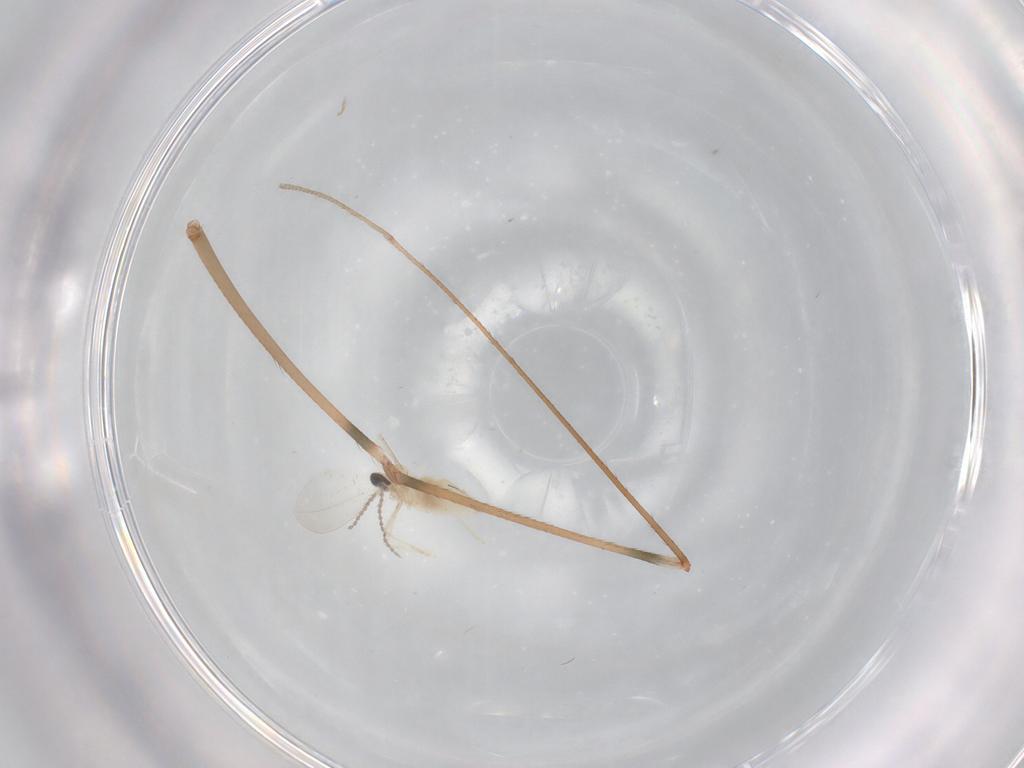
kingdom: Animalia
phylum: Arthropoda
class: Insecta
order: Diptera
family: Cecidomyiidae
